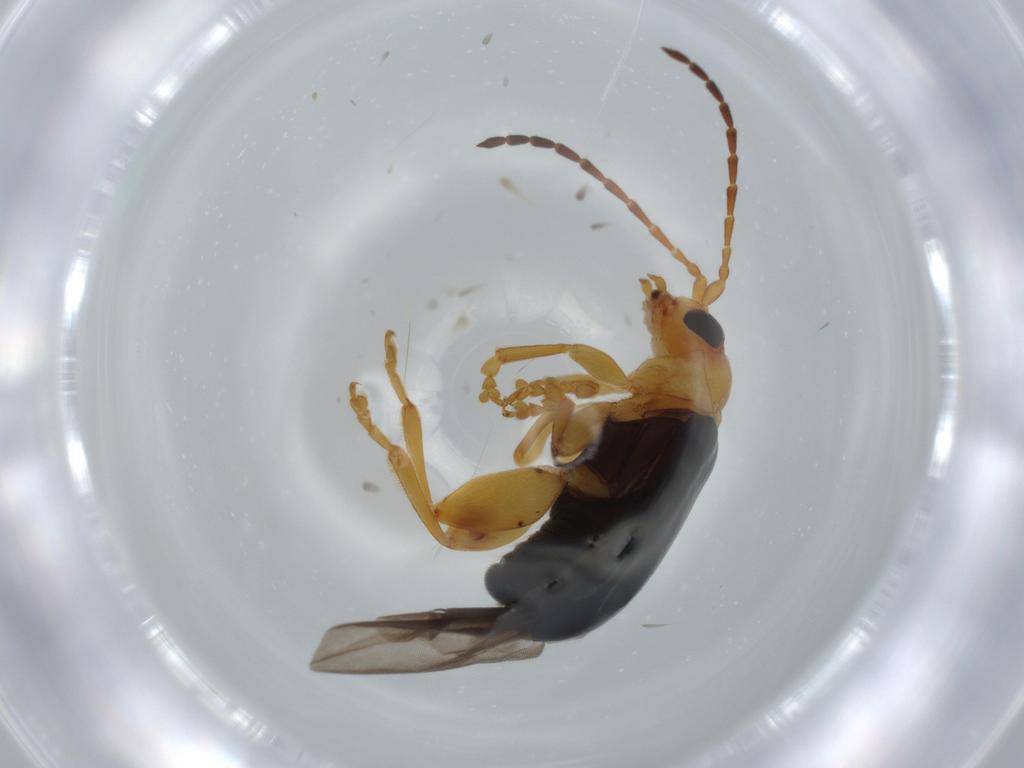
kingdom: Animalia
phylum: Arthropoda
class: Insecta
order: Coleoptera
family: Chrysomelidae
